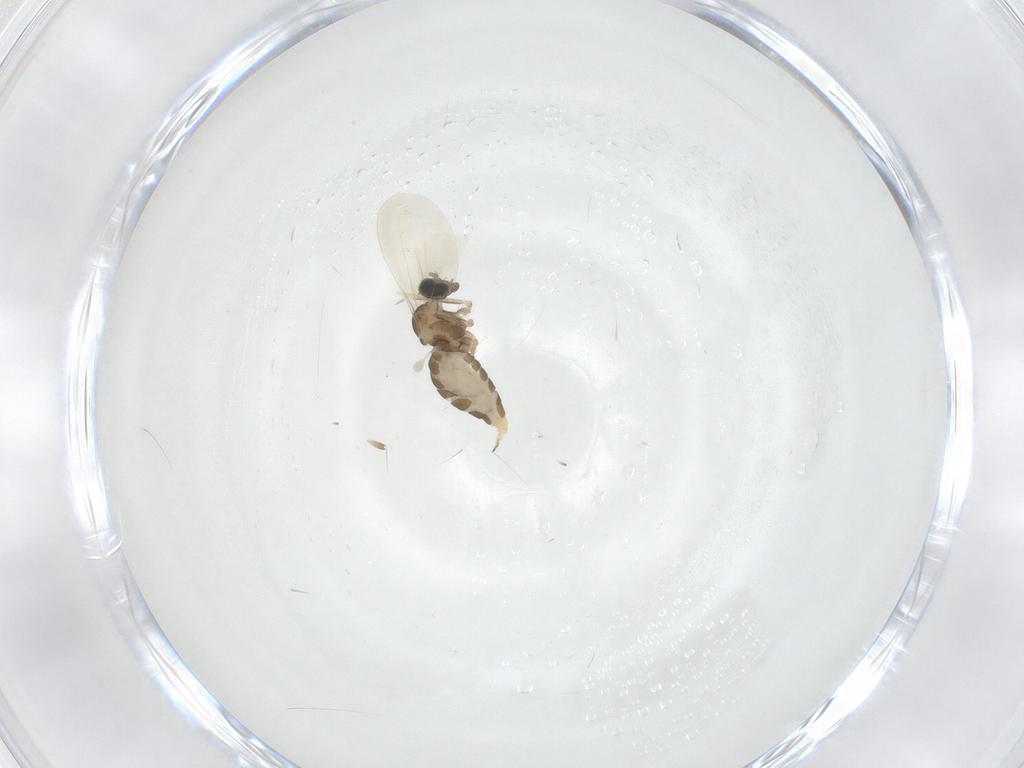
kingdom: Animalia
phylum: Arthropoda
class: Insecta
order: Diptera
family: Cecidomyiidae
